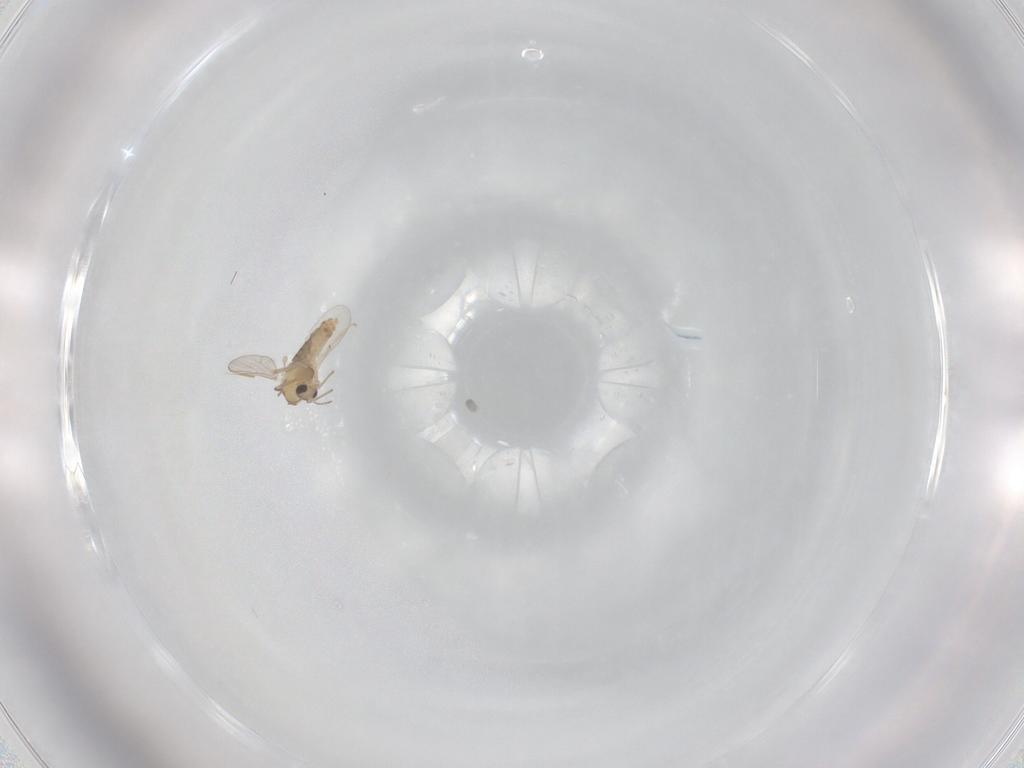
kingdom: Animalia
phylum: Arthropoda
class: Insecta
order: Diptera
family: Chironomidae
